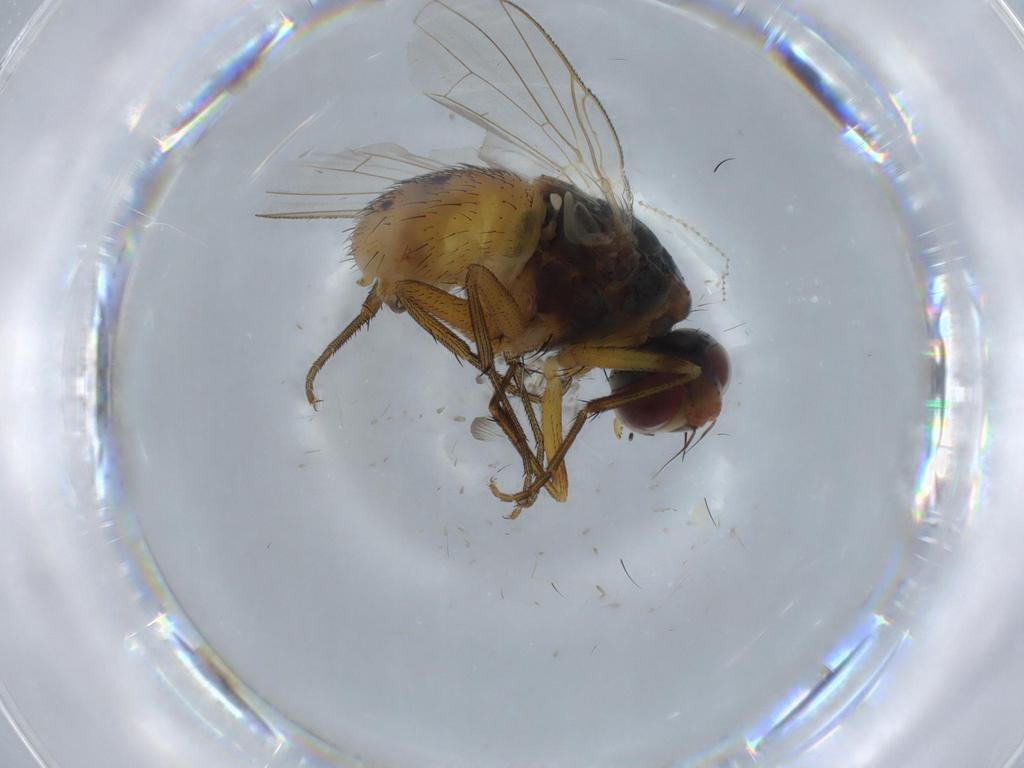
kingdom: Animalia
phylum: Arthropoda
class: Insecta
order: Diptera
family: Muscidae
